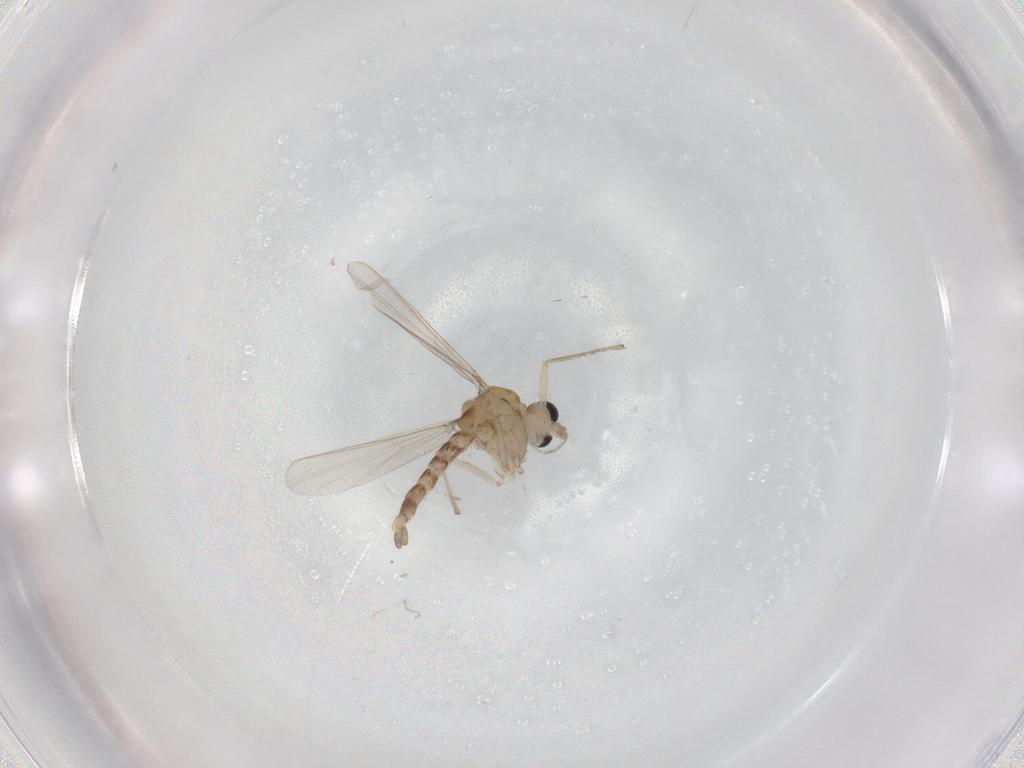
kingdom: Animalia
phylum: Arthropoda
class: Insecta
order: Diptera
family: Chironomidae
